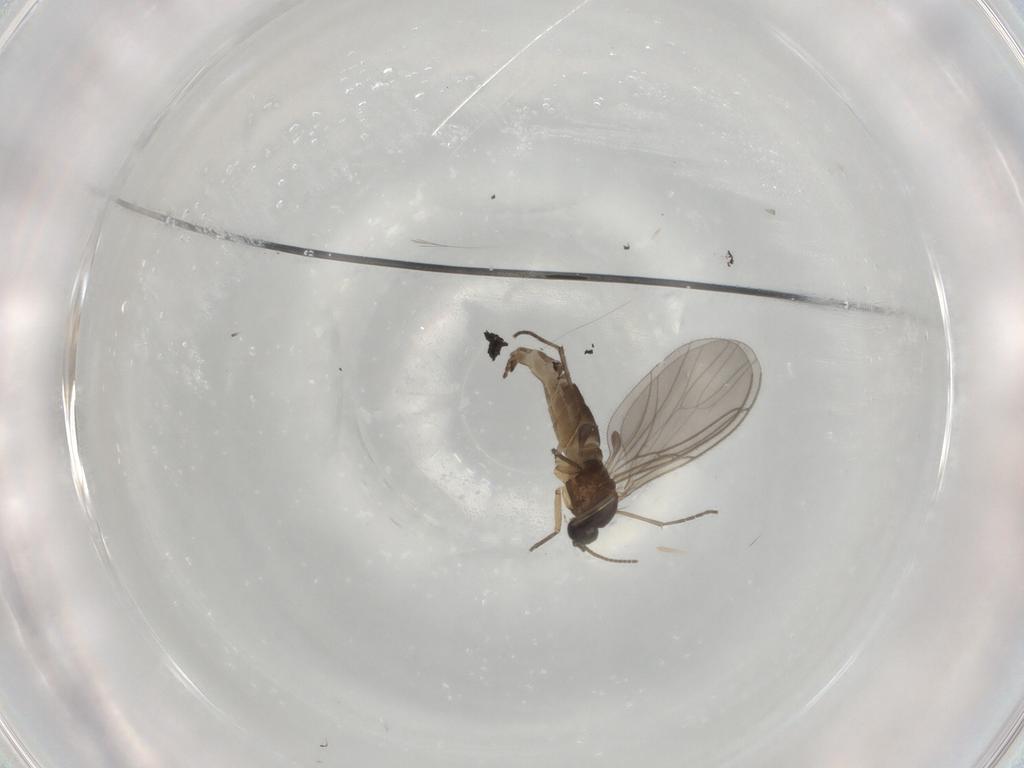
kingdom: Animalia
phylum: Arthropoda
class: Insecta
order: Diptera
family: Sciaridae
